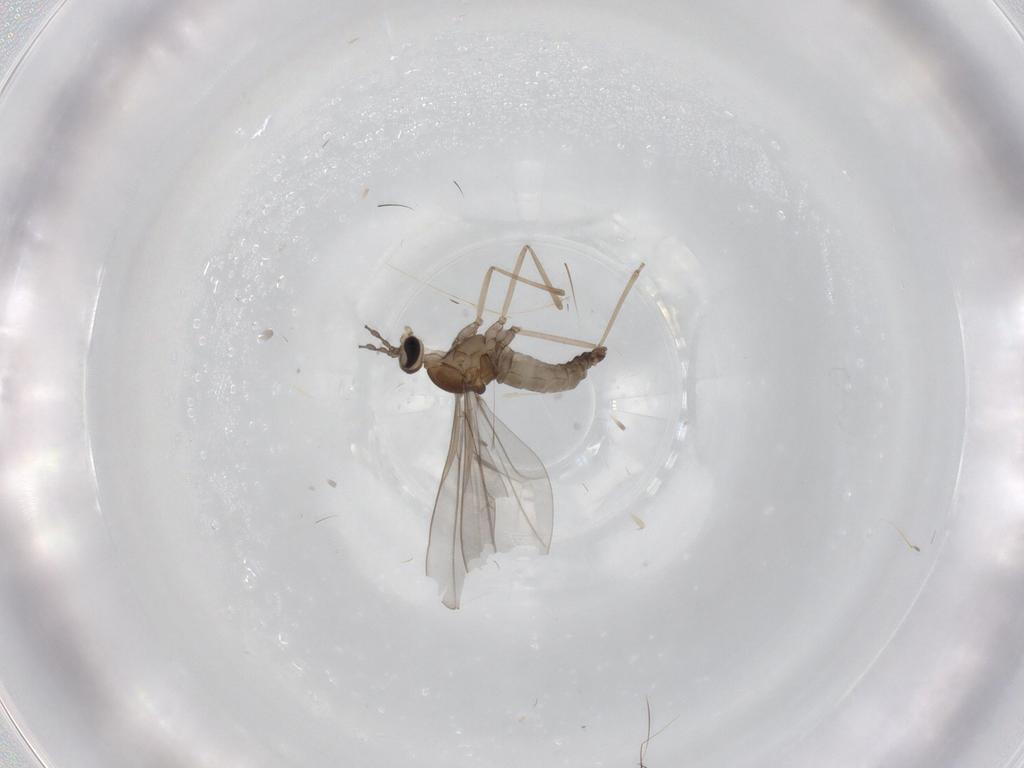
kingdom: Animalia
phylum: Arthropoda
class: Insecta
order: Diptera
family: Cecidomyiidae
